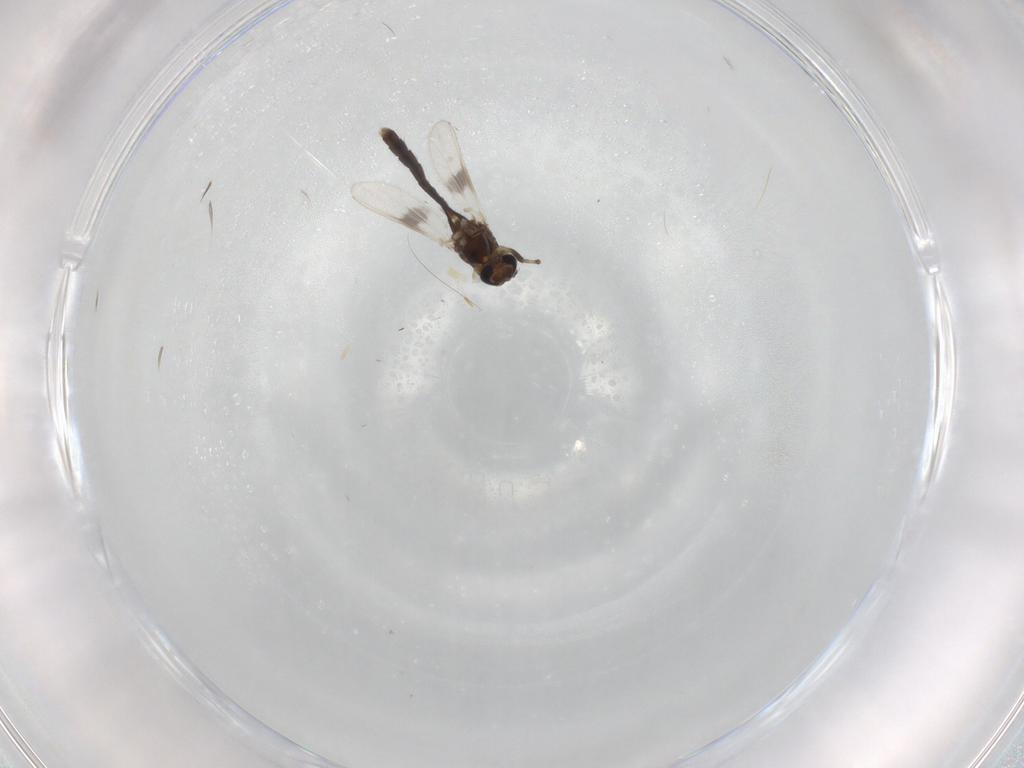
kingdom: Animalia
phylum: Arthropoda
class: Insecta
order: Diptera
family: Chironomidae
